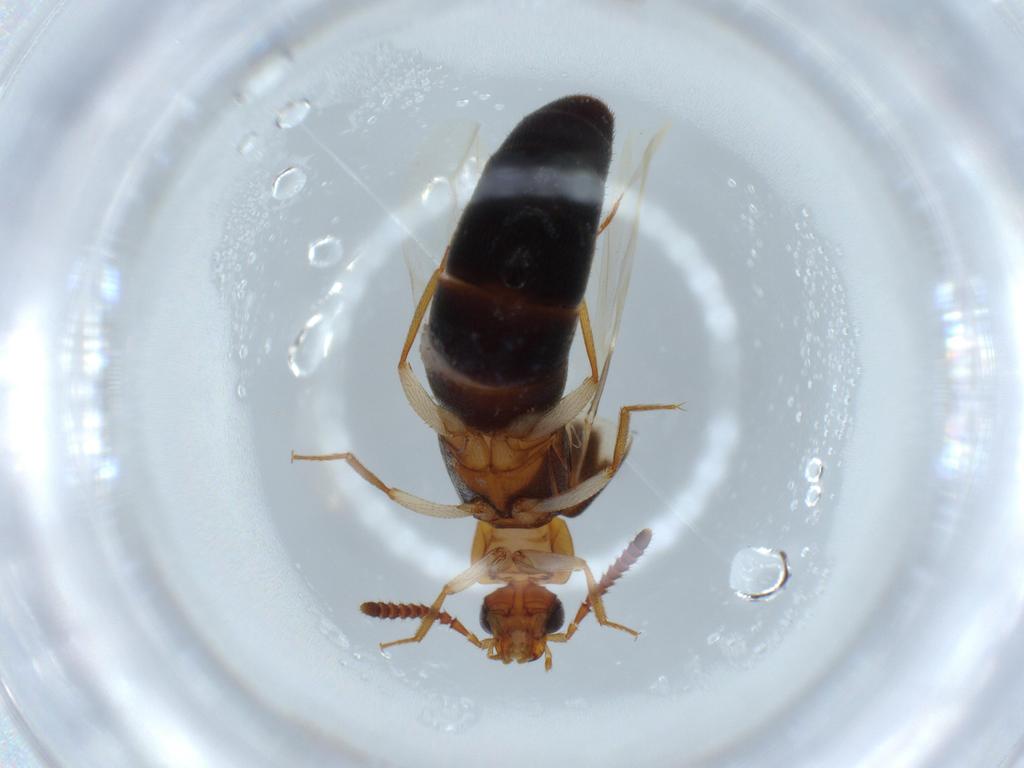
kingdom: Animalia
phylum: Arthropoda
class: Insecta
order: Coleoptera
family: Staphylinidae
